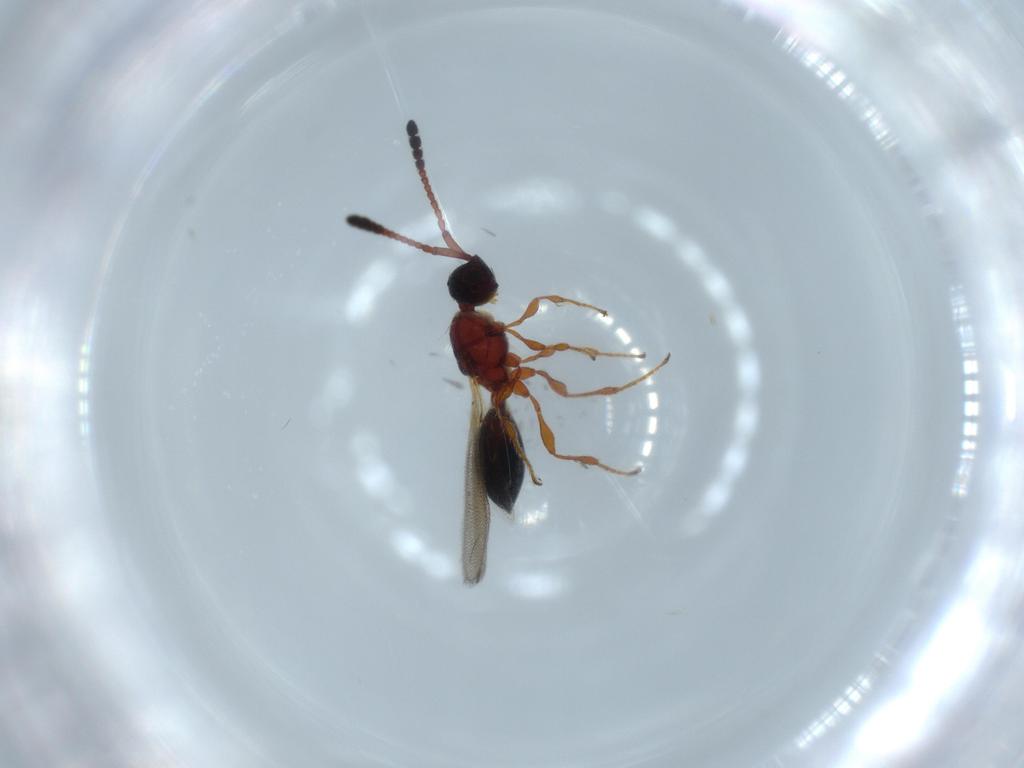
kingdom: Animalia
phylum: Arthropoda
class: Insecta
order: Hymenoptera
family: Diapriidae
